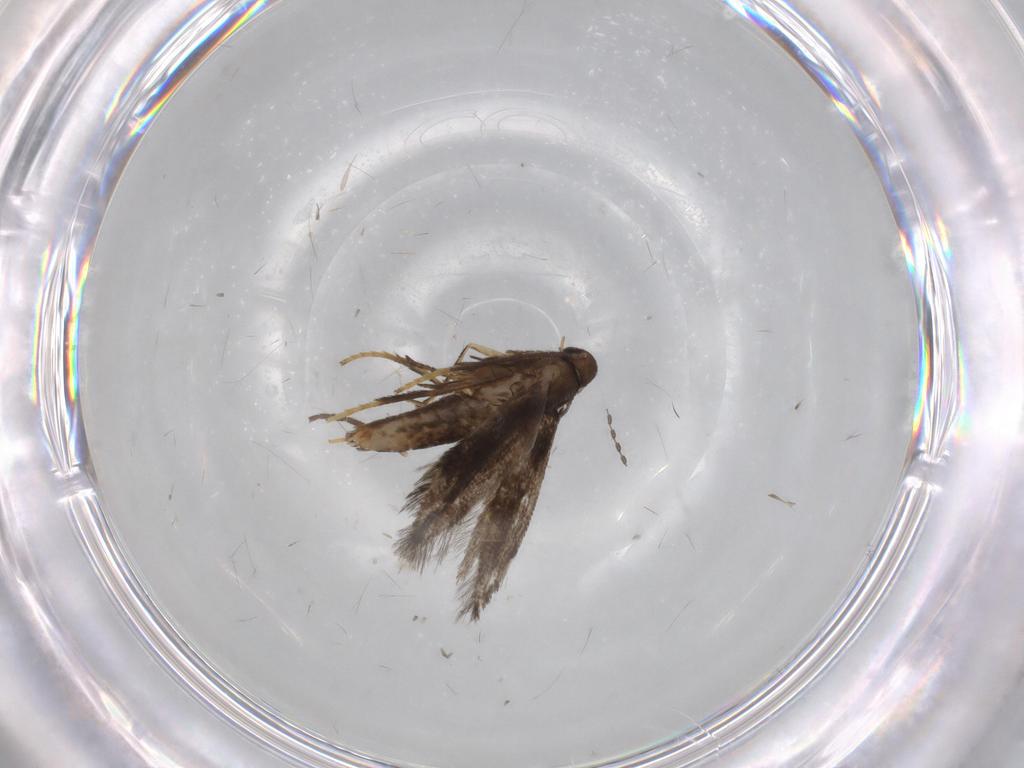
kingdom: Animalia
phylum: Arthropoda
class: Insecta
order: Lepidoptera
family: Heliozelidae
